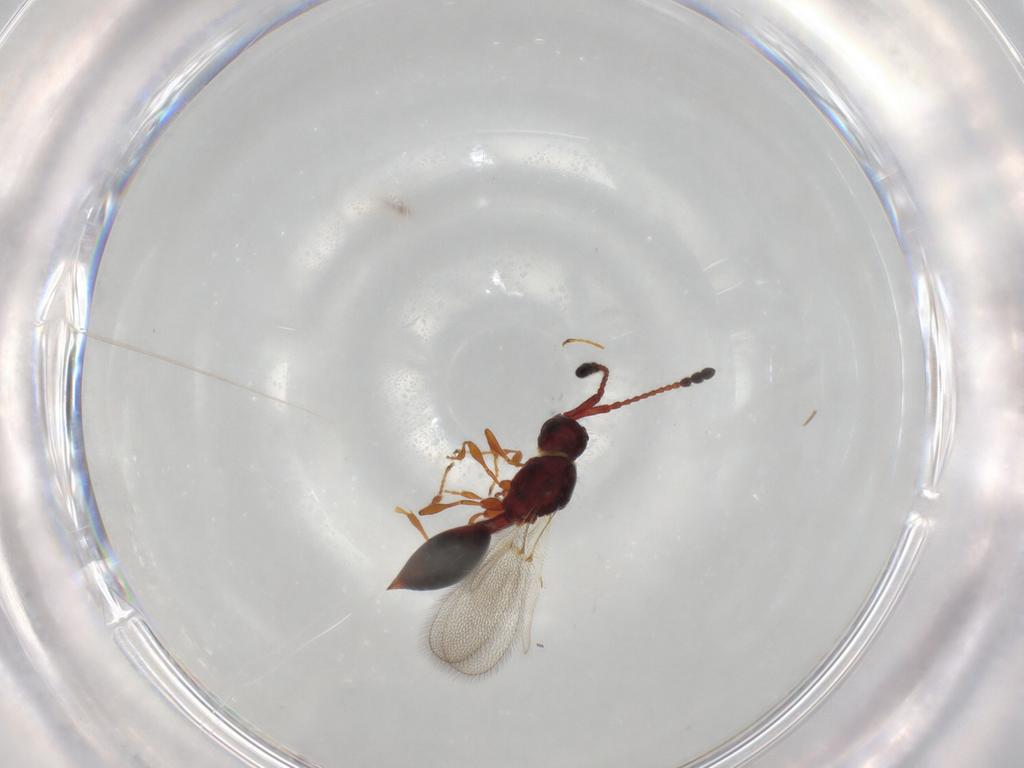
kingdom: Animalia
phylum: Arthropoda
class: Insecta
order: Hymenoptera
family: Diapriidae
